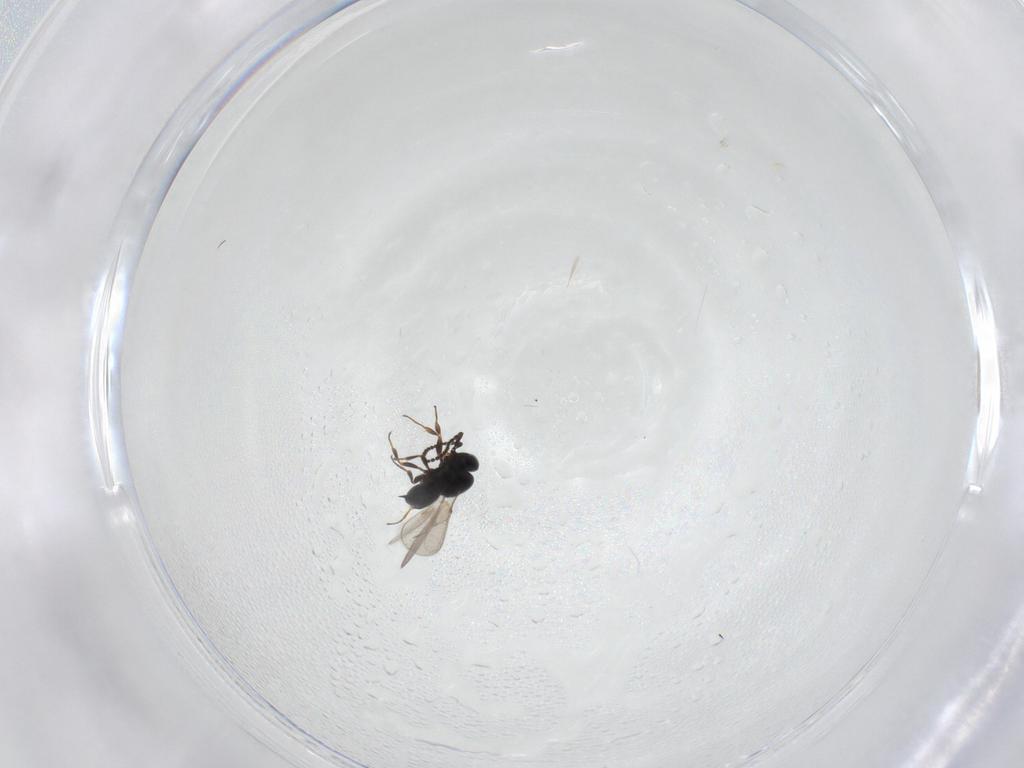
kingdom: Animalia
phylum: Arthropoda
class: Insecta
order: Hymenoptera
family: Scelionidae
